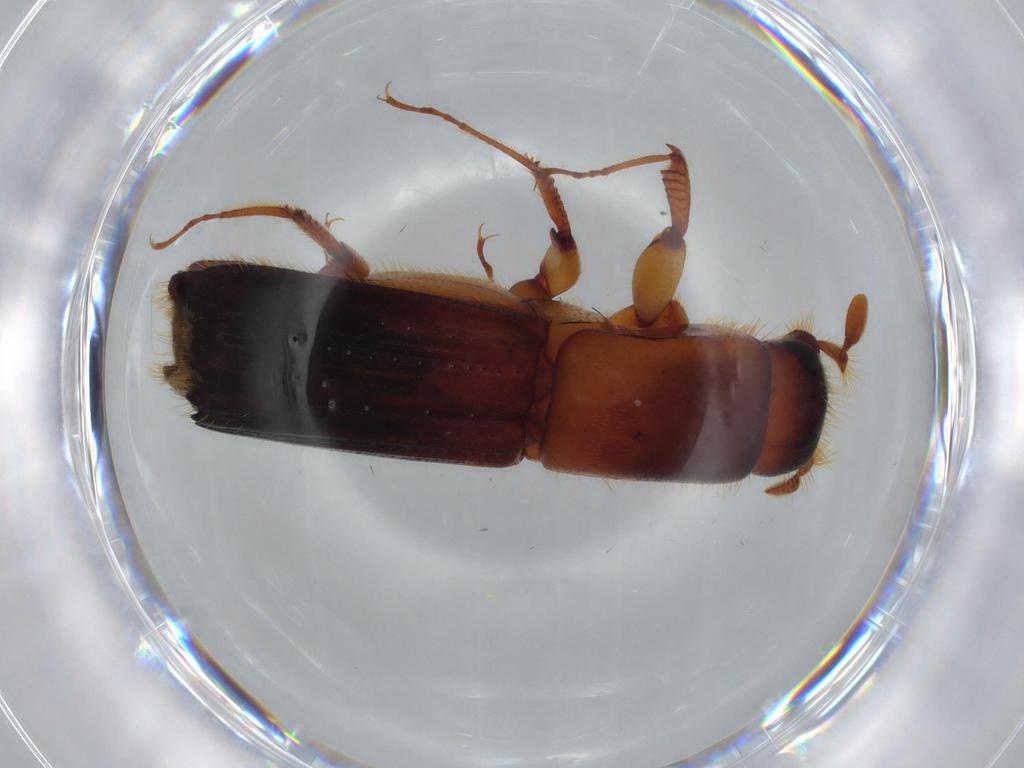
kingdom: Animalia
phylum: Arthropoda
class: Insecta
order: Coleoptera
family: Curculionidae
